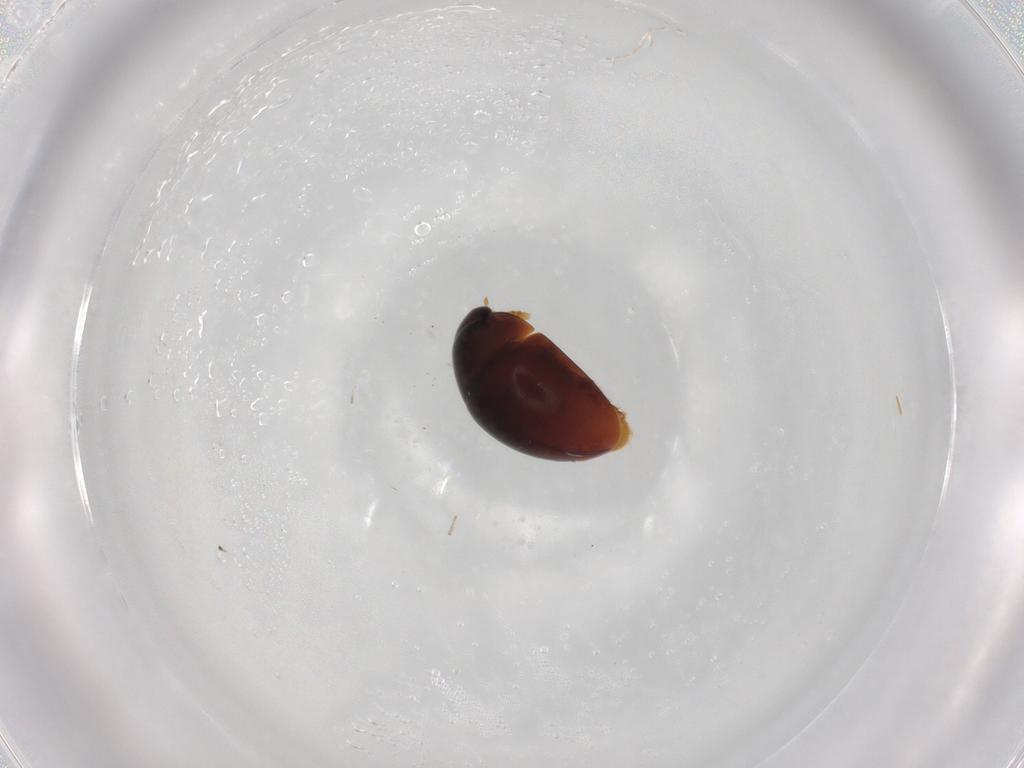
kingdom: Animalia
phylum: Arthropoda
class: Insecta
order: Coleoptera
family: Phalacridae
